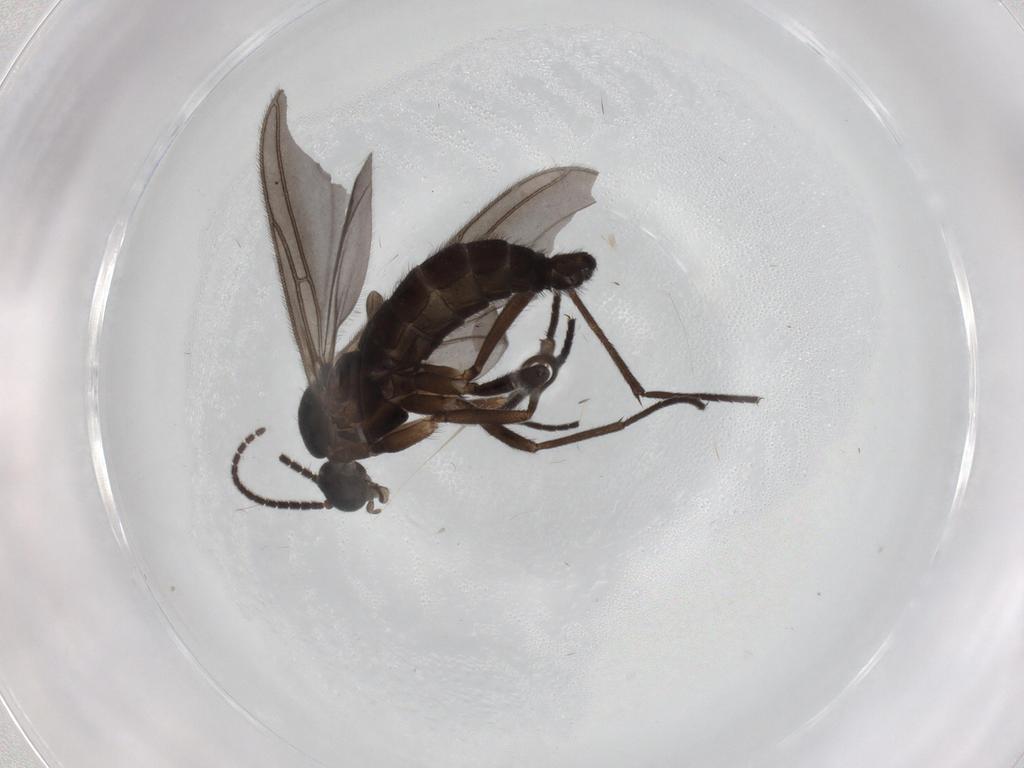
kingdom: Animalia
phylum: Arthropoda
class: Insecta
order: Diptera
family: Sciaridae
